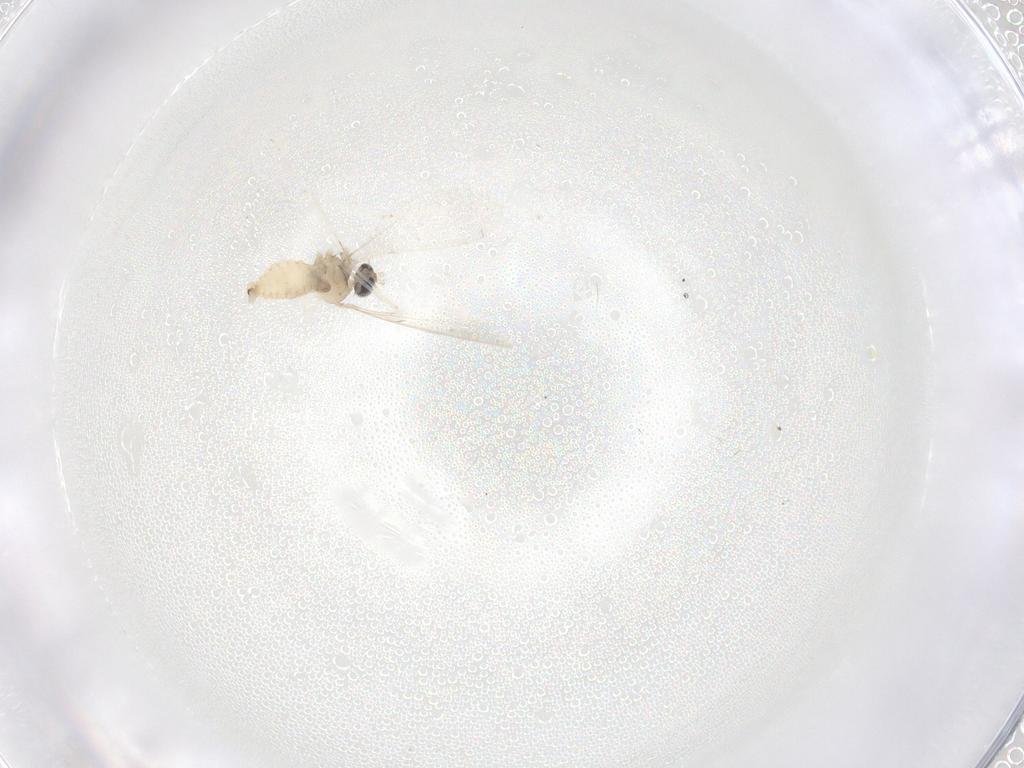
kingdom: Animalia
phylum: Arthropoda
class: Insecta
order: Diptera
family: Cecidomyiidae
